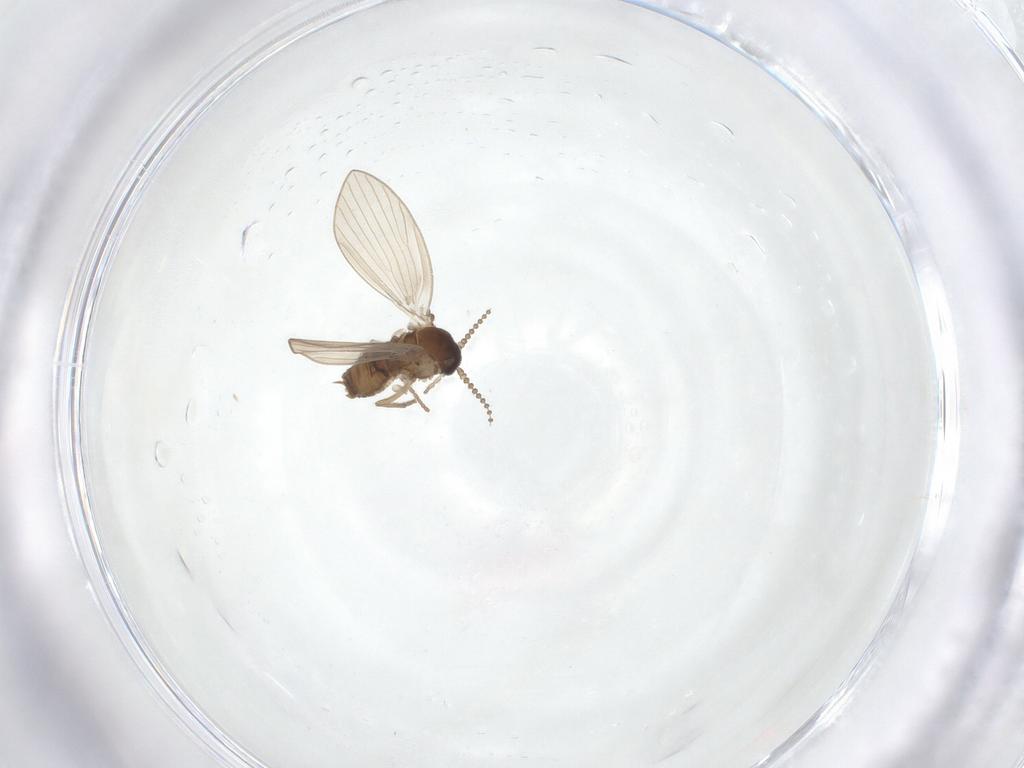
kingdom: Animalia
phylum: Arthropoda
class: Insecta
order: Diptera
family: Psychodidae
